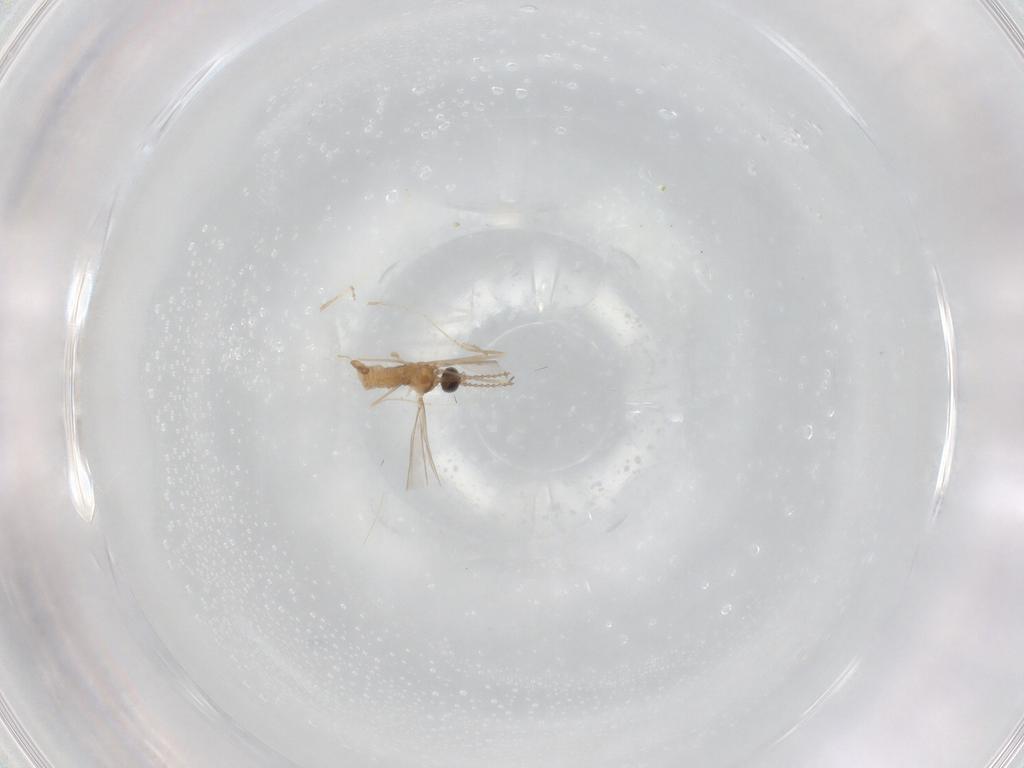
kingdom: Animalia
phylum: Arthropoda
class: Insecta
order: Diptera
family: Cecidomyiidae
